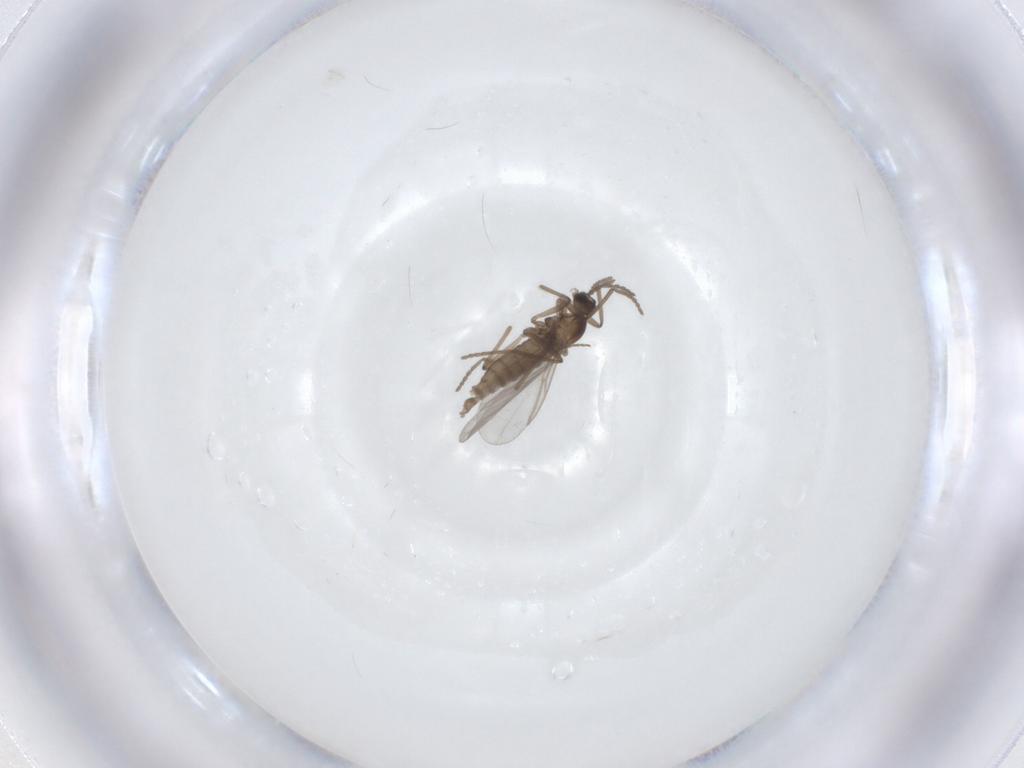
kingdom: Animalia
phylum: Arthropoda
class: Insecta
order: Diptera
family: Cecidomyiidae
